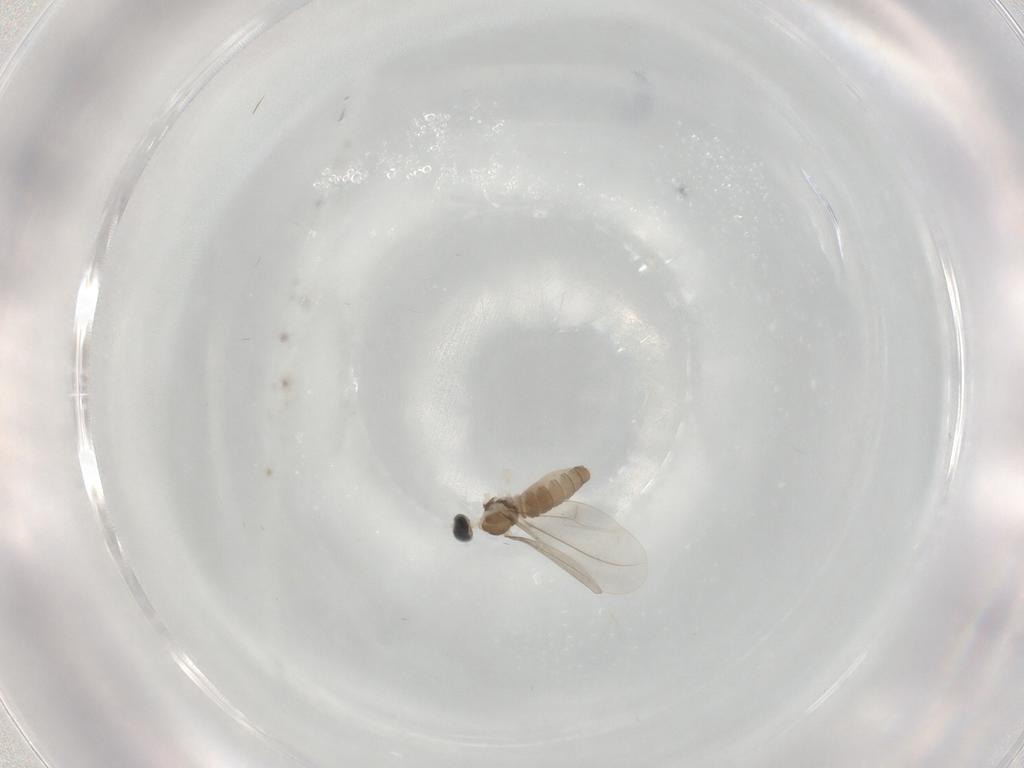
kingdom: Animalia
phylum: Arthropoda
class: Insecta
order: Diptera
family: Cecidomyiidae
